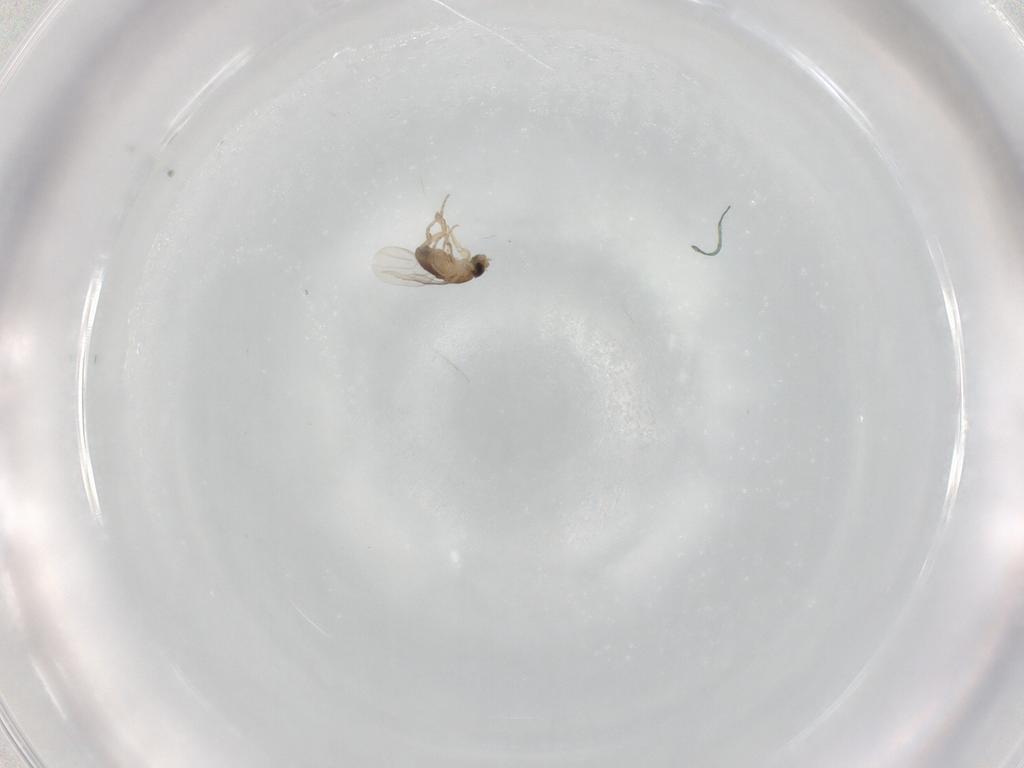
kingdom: Animalia
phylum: Arthropoda
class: Insecta
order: Diptera
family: Phoridae
